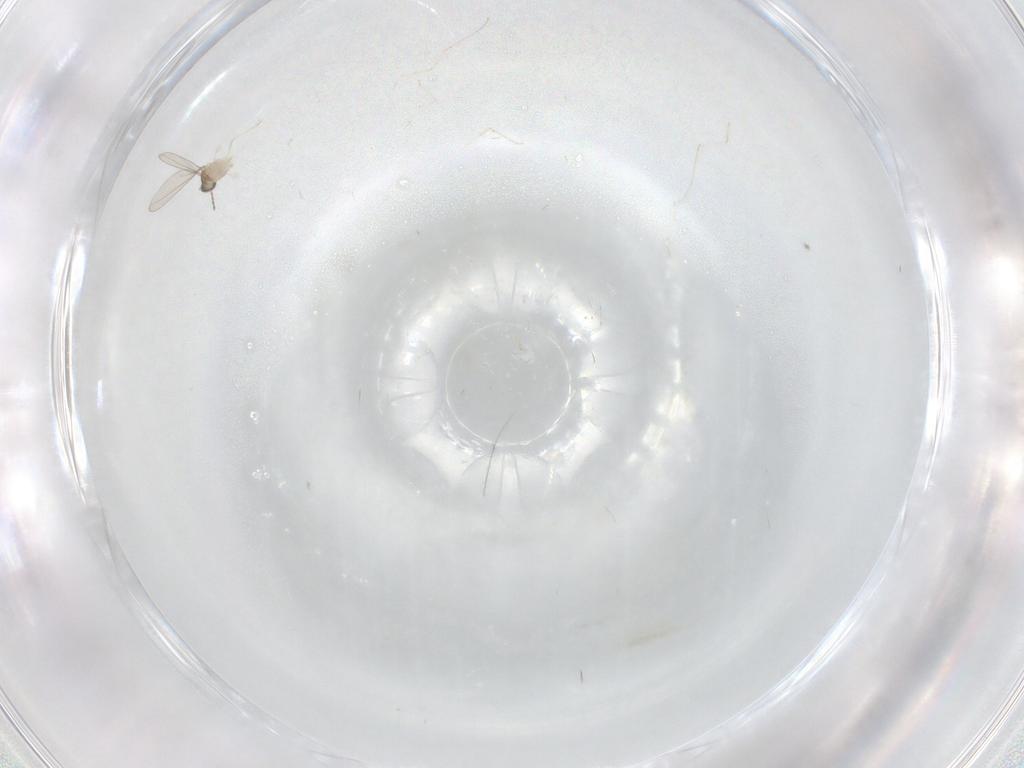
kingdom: Animalia
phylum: Arthropoda
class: Insecta
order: Diptera
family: Cecidomyiidae
